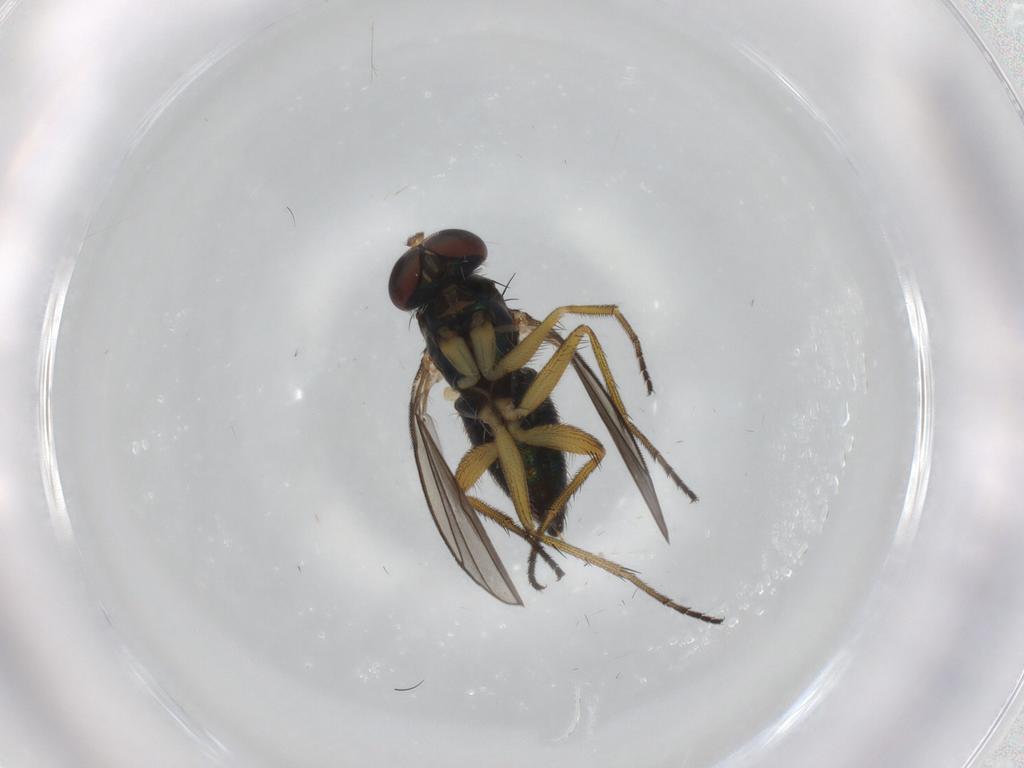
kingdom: Animalia
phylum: Arthropoda
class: Insecta
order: Diptera
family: Dolichopodidae
